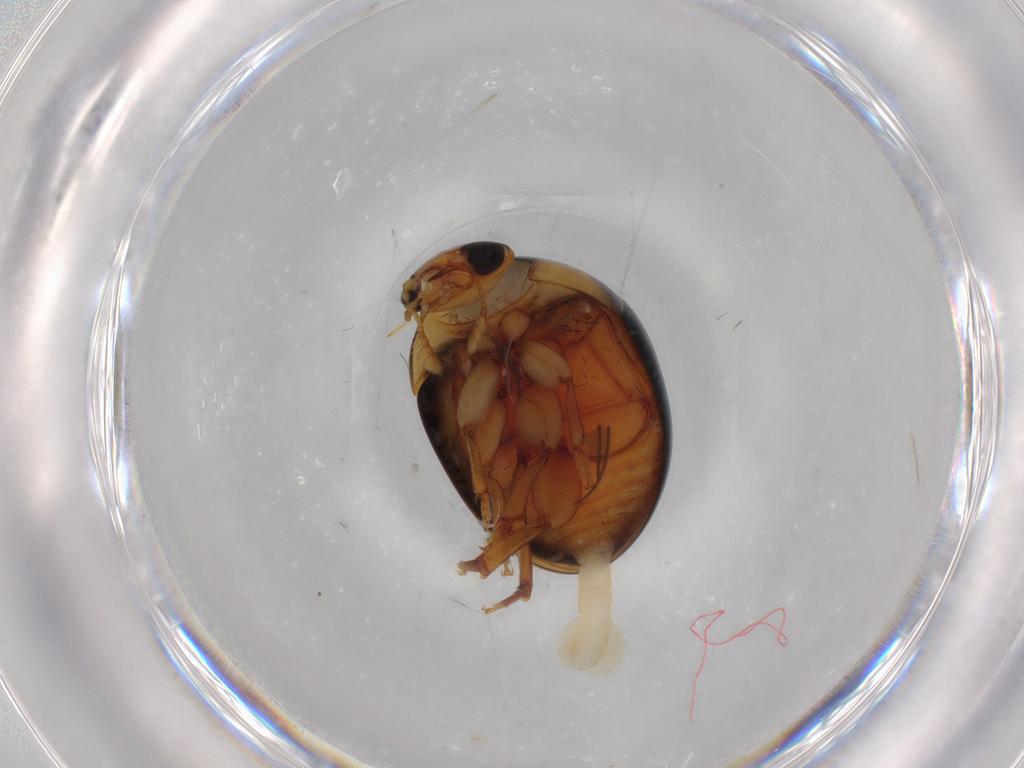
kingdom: Animalia
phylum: Arthropoda
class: Insecta
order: Coleoptera
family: Phalacridae
